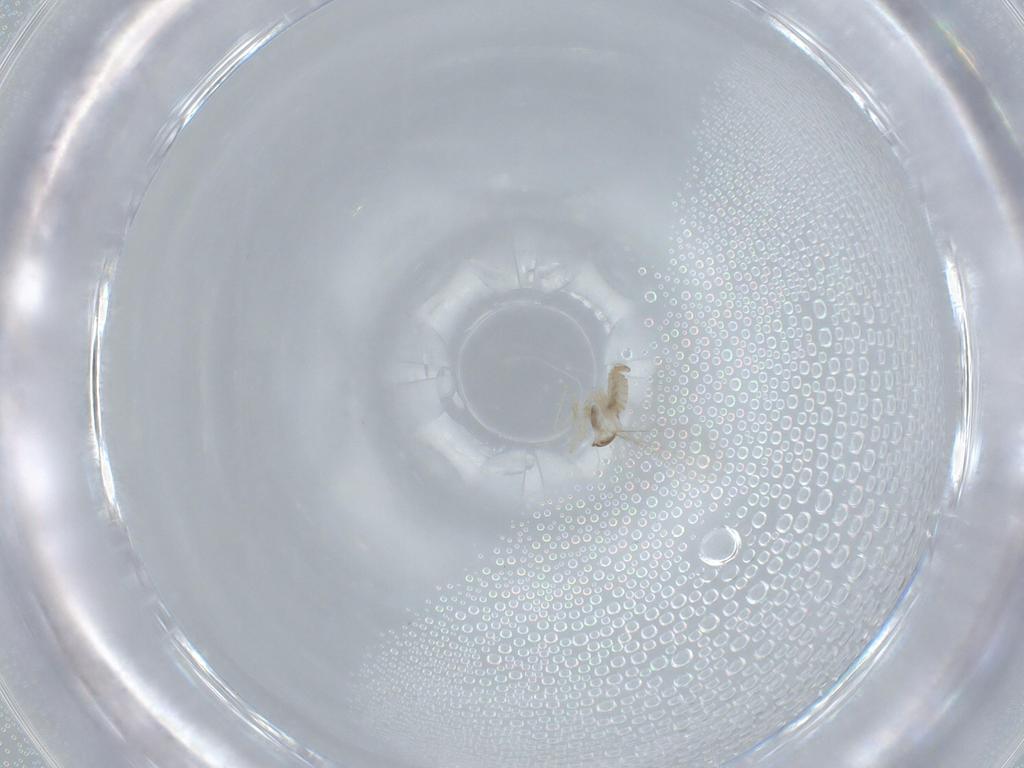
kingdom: Animalia
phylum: Arthropoda
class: Insecta
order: Diptera
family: Cecidomyiidae
